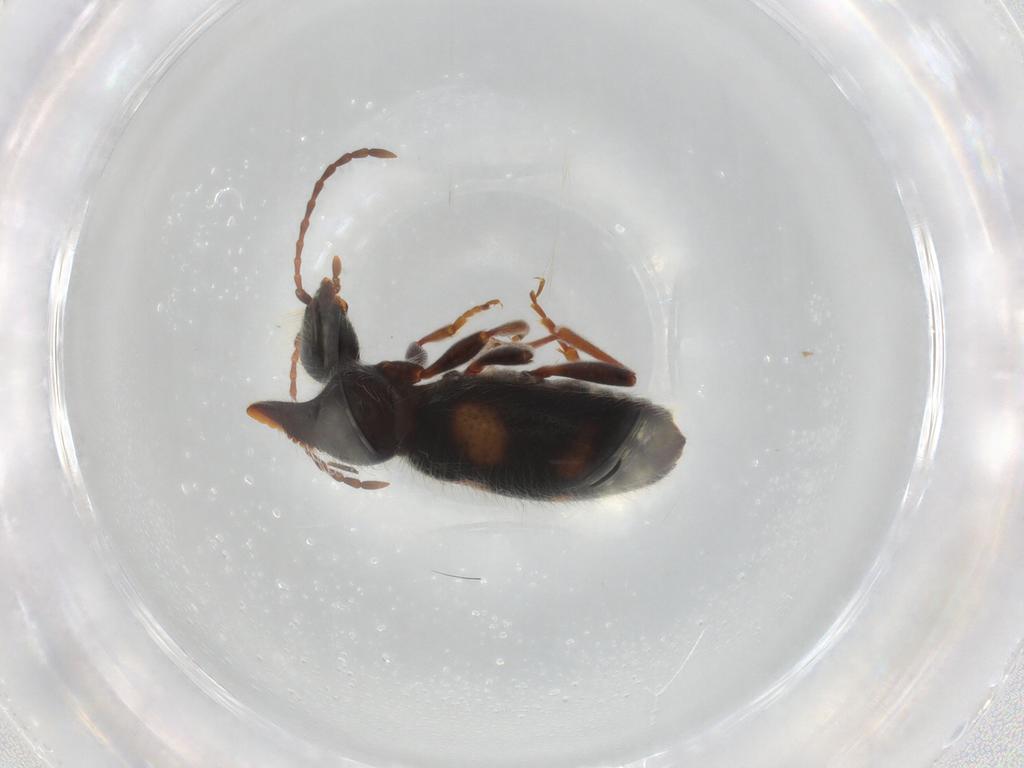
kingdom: Animalia
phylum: Arthropoda
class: Insecta
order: Coleoptera
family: Anthicidae
